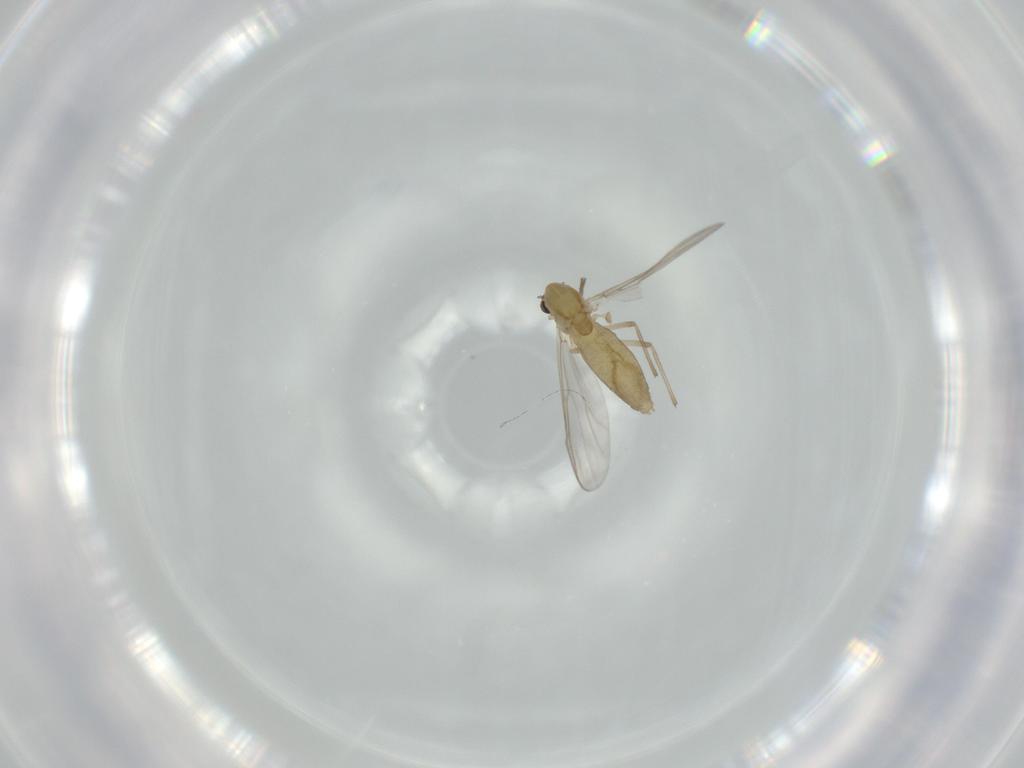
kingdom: Animalia
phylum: Arthropoda
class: Insecta
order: Diptera
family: Chironomidae
